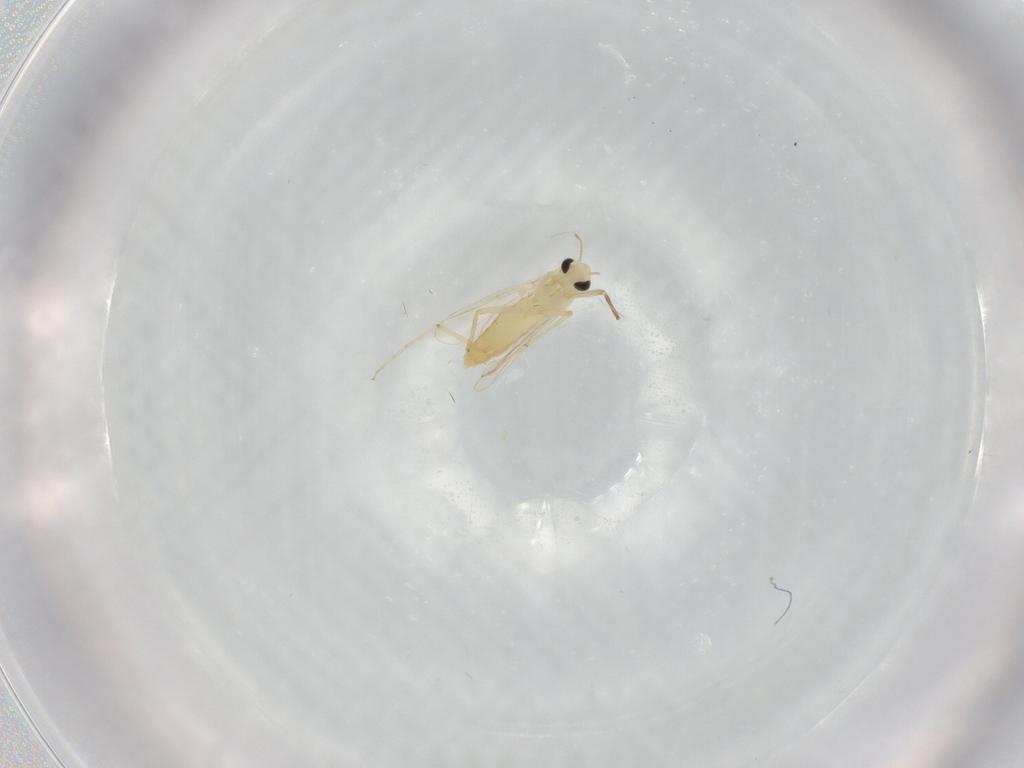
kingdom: Animalia
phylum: Arthropoda
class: Insecta
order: Diptera
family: Chironomidae
